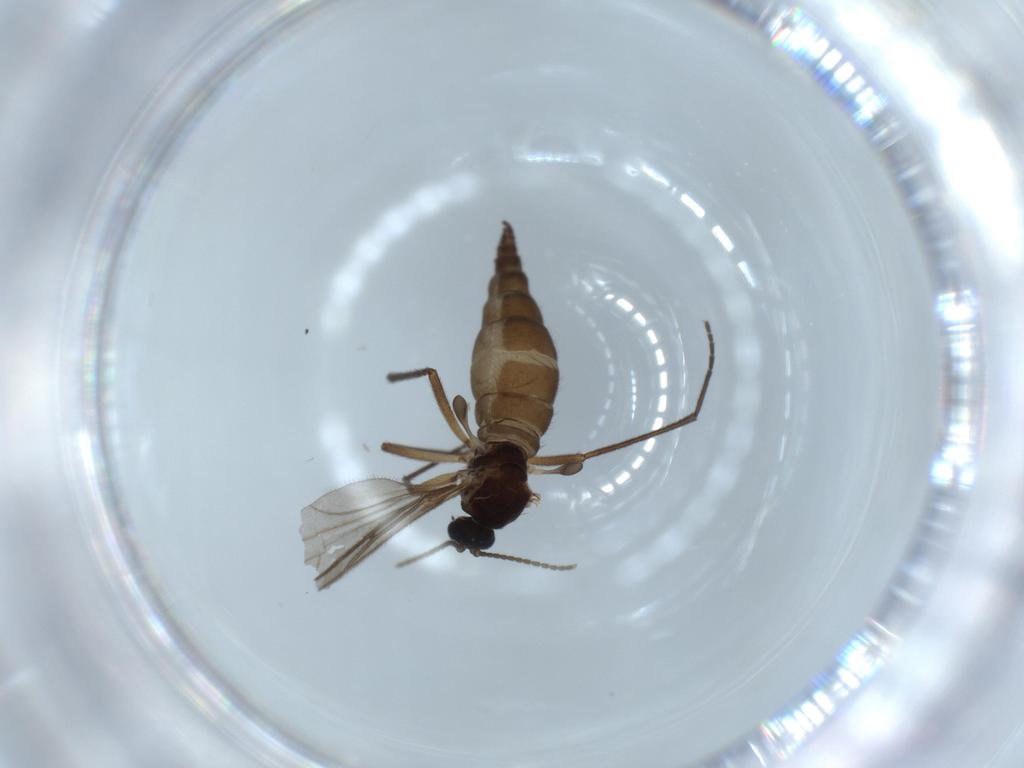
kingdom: Animalia
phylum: Arthropoda
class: Insecta
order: Diptera
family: Sciaridae
